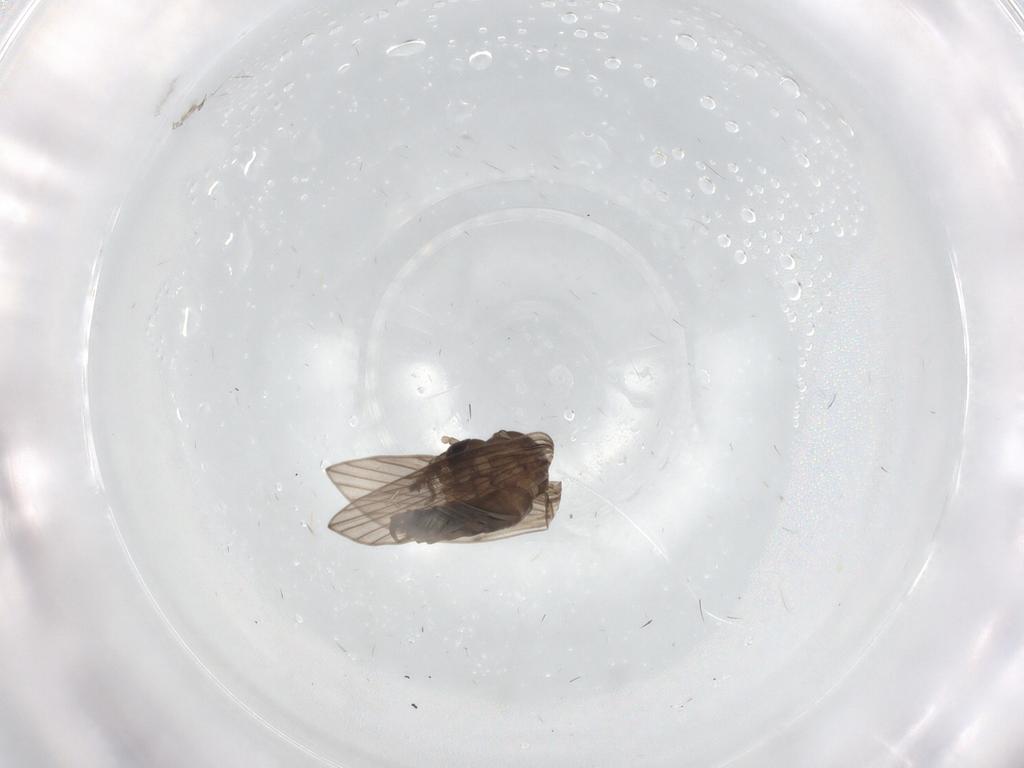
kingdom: Animalia
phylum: Arthropoda
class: Insecta
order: Diptera
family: Psychodidae
